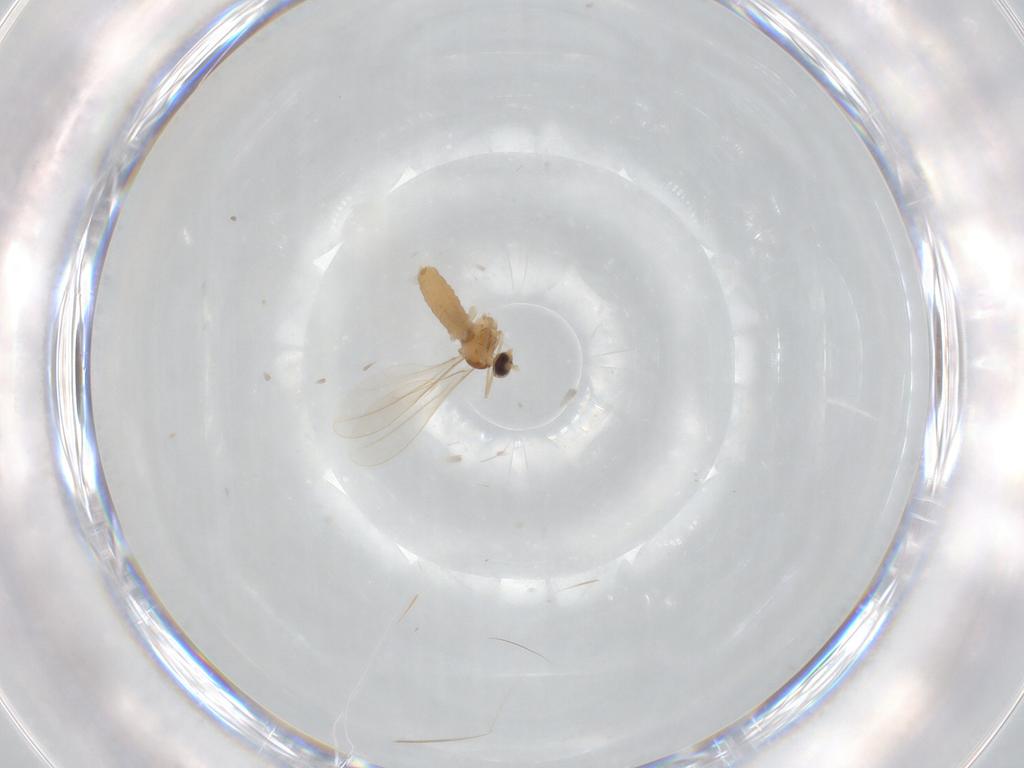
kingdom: Animalia
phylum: Arthropoda
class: Insecta
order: Diptera
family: Cecidomyiidae
